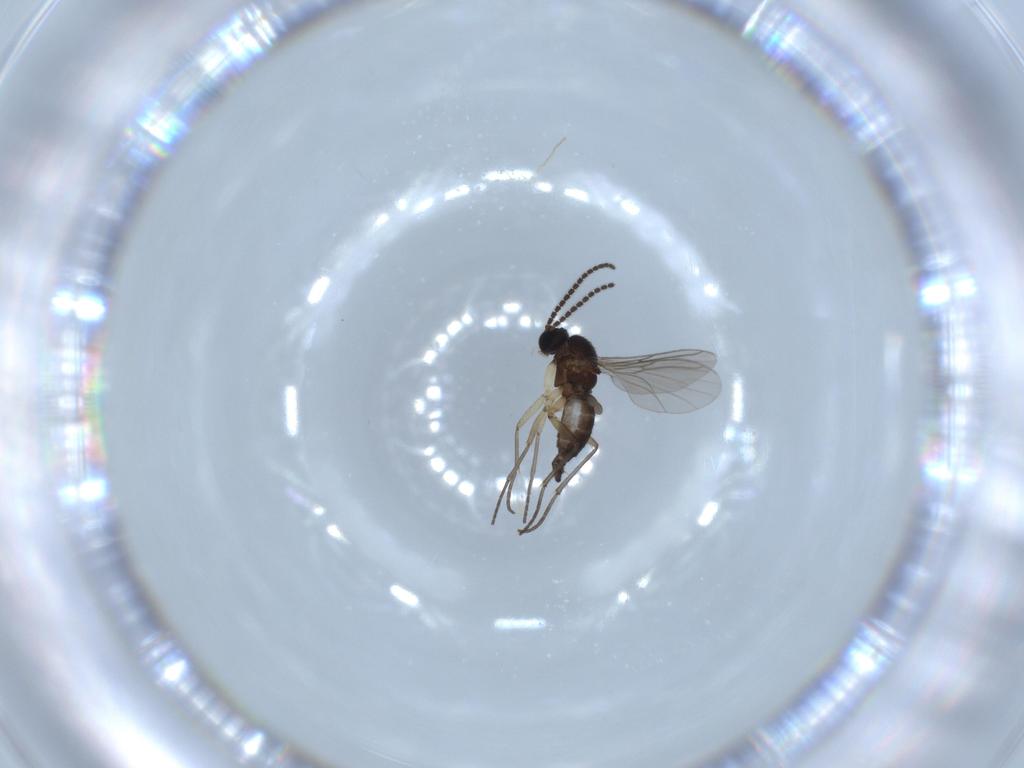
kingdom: Animalia
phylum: Arthropoda
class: Insecta
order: Diptera
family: Sciaridae
